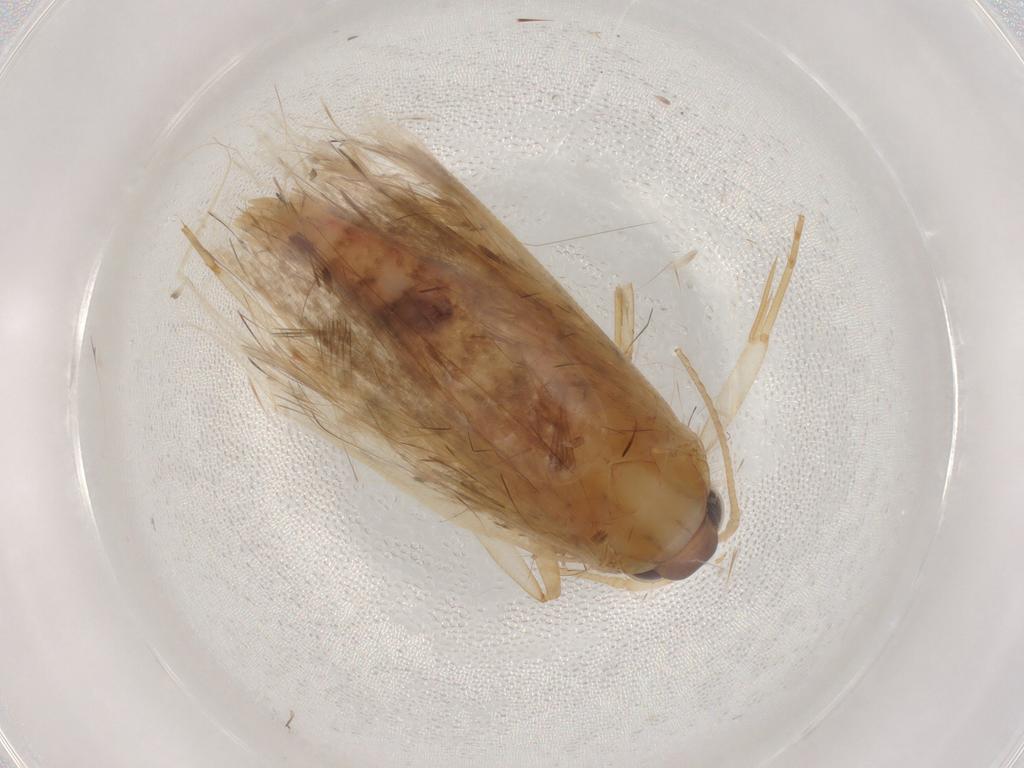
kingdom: Animalia
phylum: Arthropoda
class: Insecta
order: Lepidoptera
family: Gelechiidae
